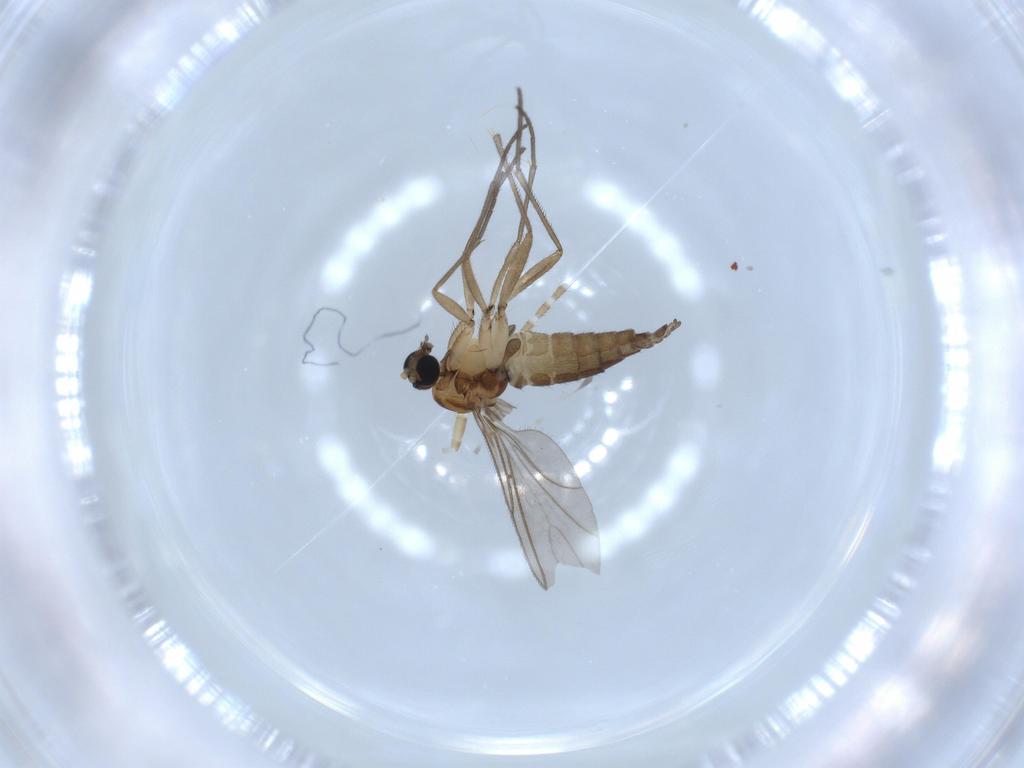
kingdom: Animalia
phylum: Arthropoda
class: Insecta
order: Diptera
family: Sciaridae
